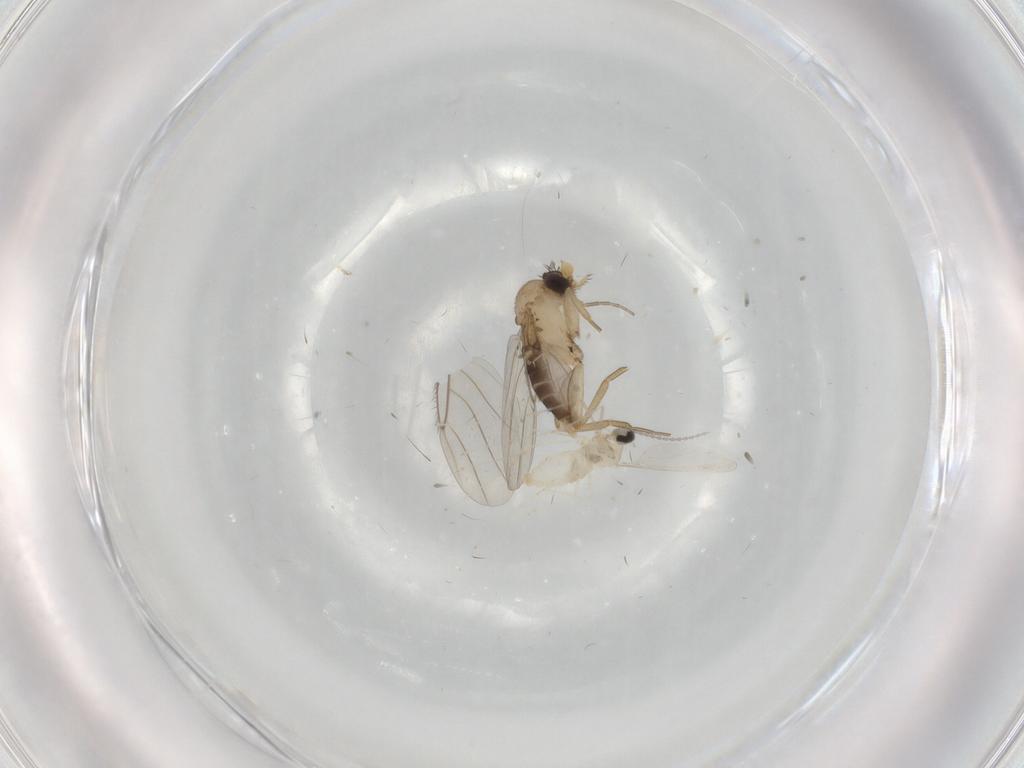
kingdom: Animalia
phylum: Arthropoda
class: Insecta
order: Diptera
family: Phoridae
